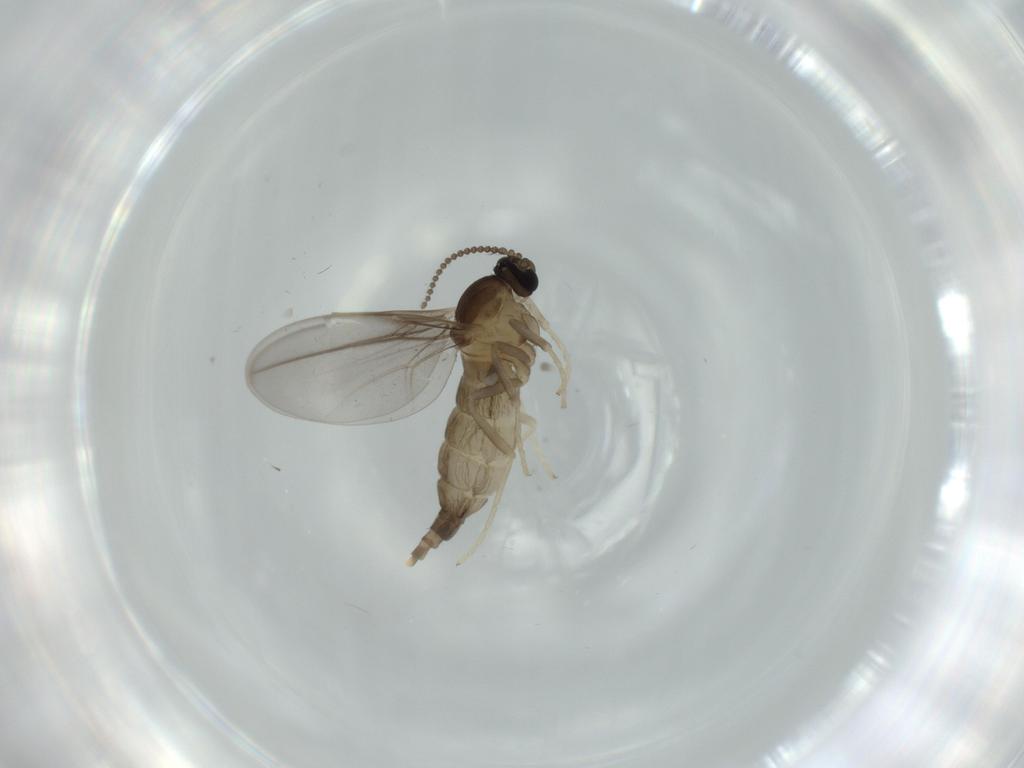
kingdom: Animalia
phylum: Arthropoda
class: Insecta
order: Diptera
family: Cecidomyiidae
